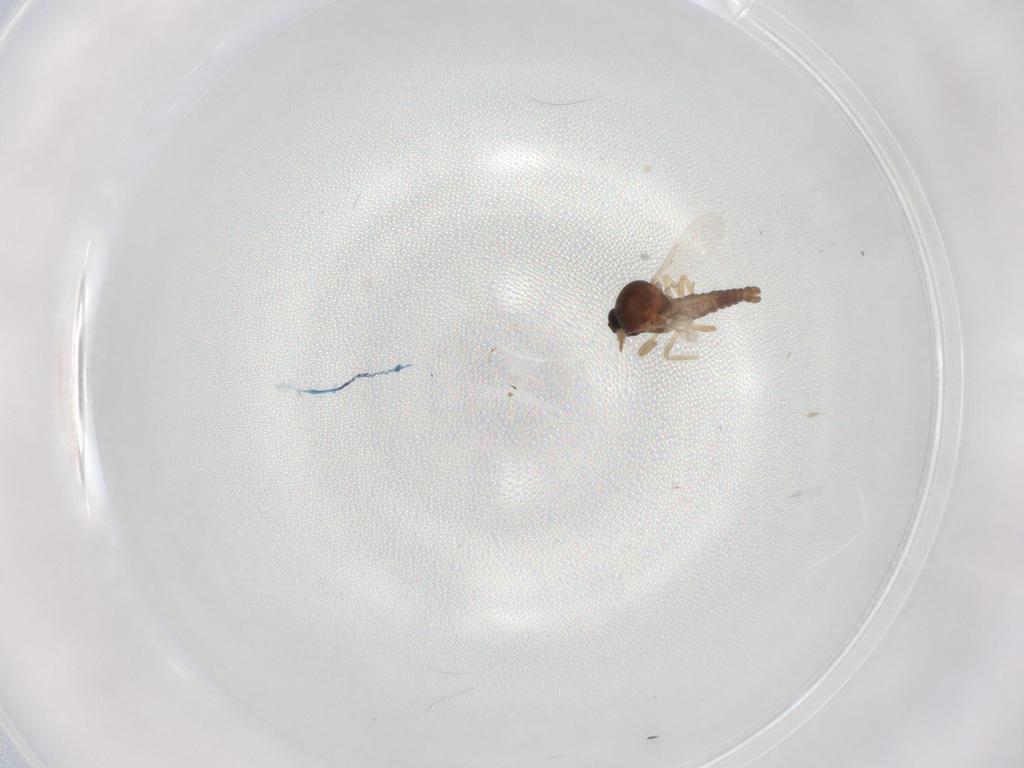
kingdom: Animalia
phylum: Arthropoda
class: Insecta
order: Diptera
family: Ceratopogonidae
